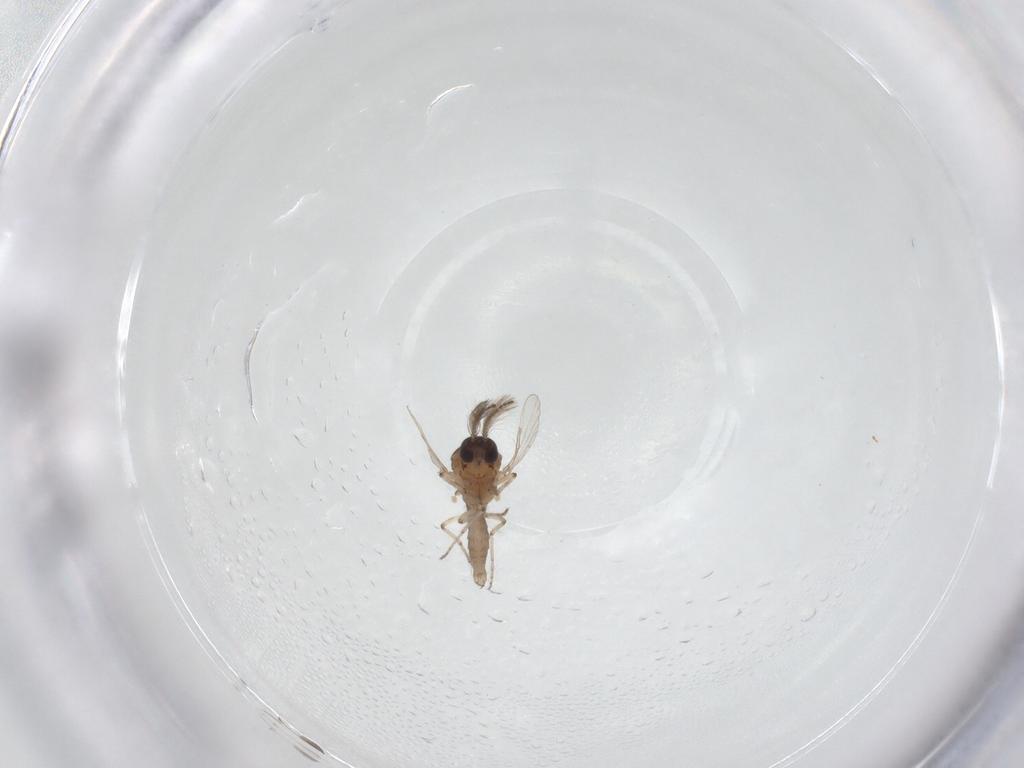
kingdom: Animalia
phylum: Arthropoda
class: Insecta
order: Diptera
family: Ceratopogonidae
